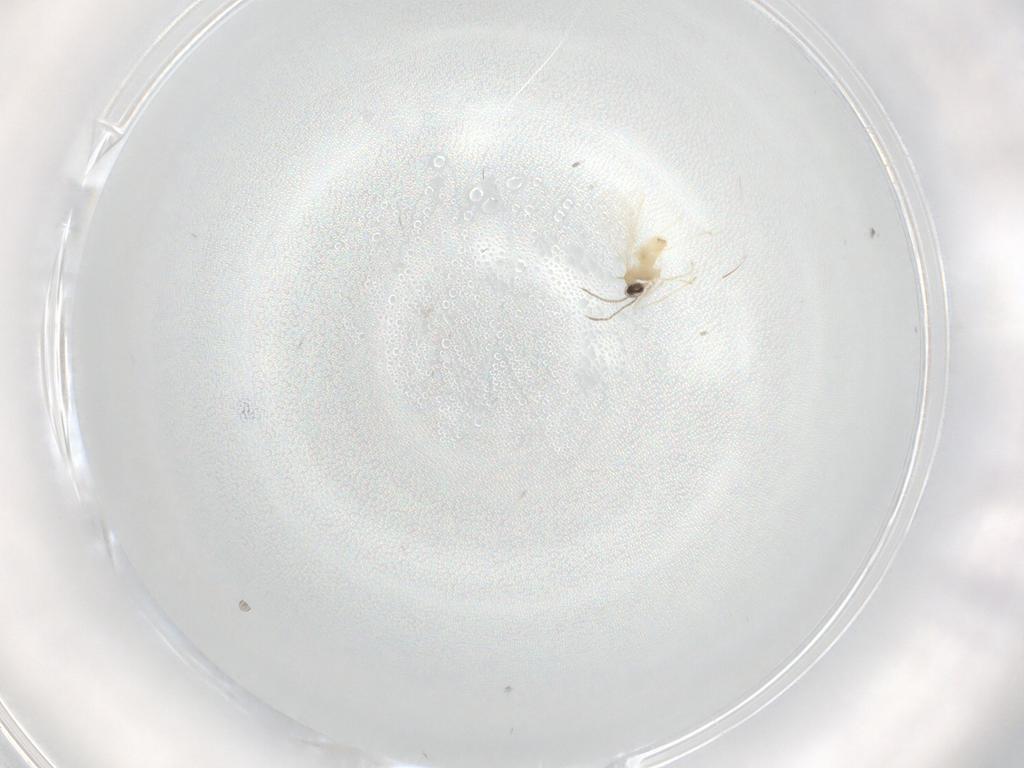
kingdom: Animalia
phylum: Arthropoda
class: Insecta
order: Diptera
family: Cecidomyiidae
